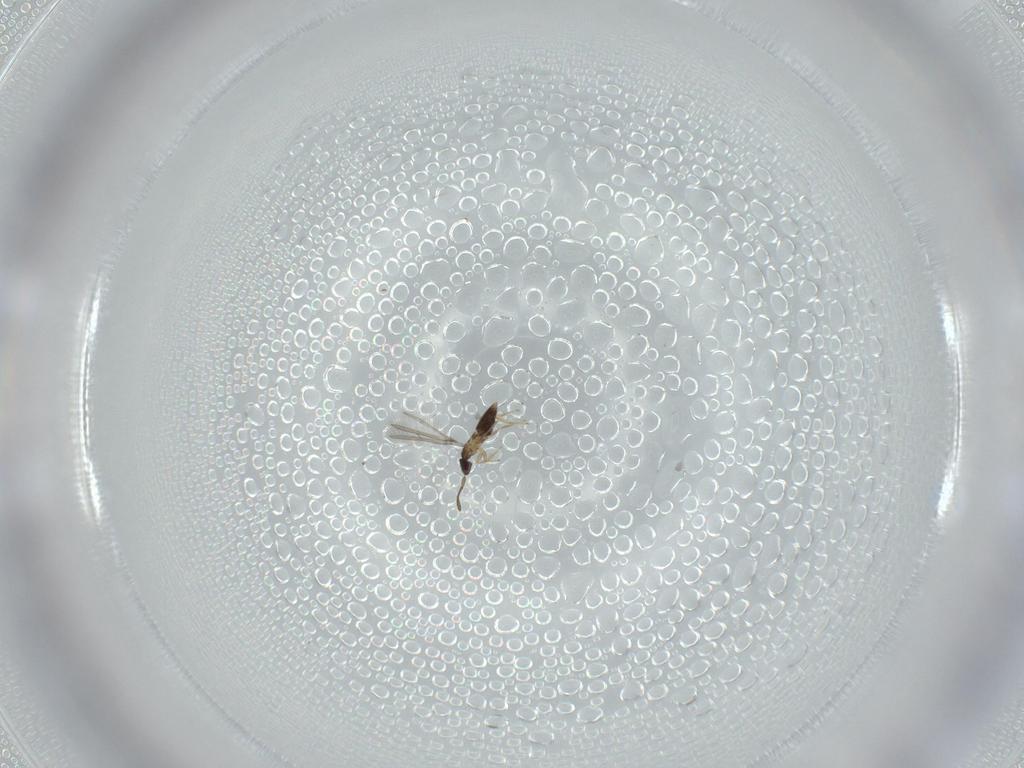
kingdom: Animalia
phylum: Arthropoda
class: Insecta
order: Hymenoptera
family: Mymaridae
